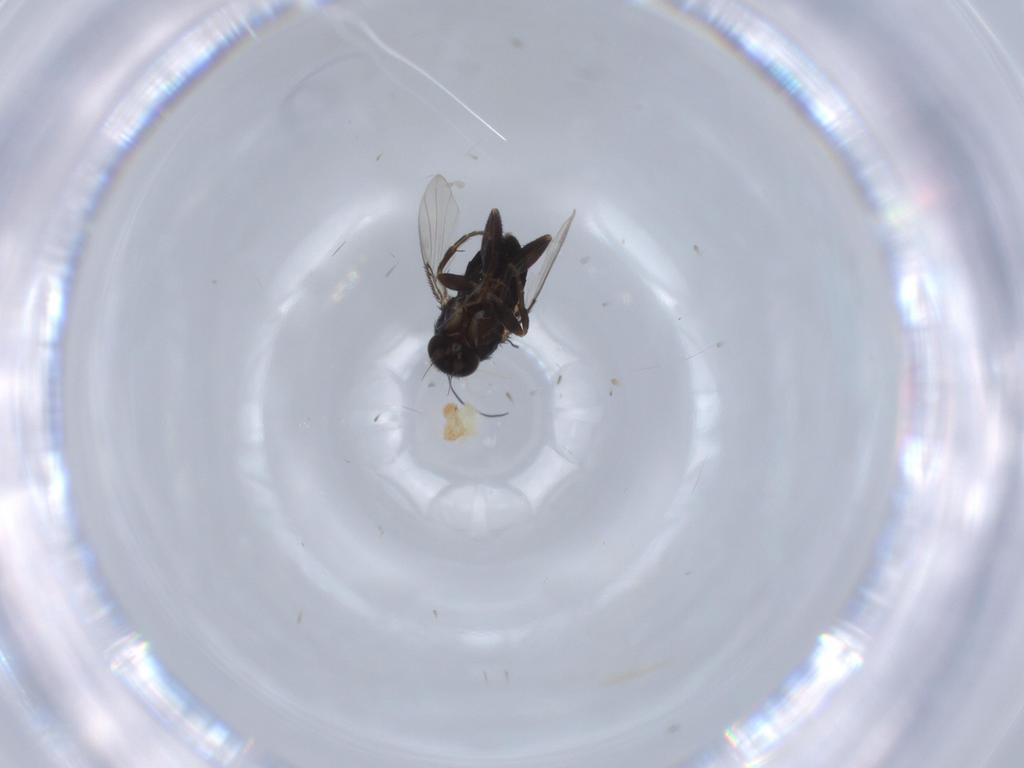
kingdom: Animalia
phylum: Arthropoda
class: Insecta
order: Diptera
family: Phoridae
